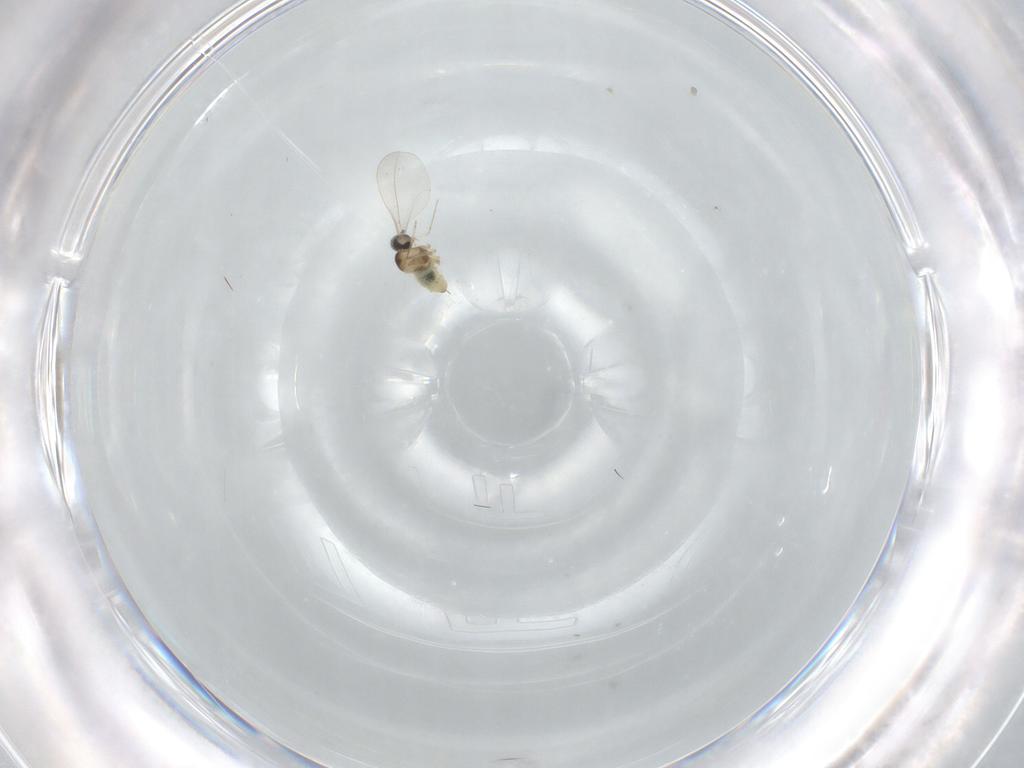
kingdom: Animalia
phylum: Arthropoda
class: Insecta
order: Diptera
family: Cecidomyiidae
